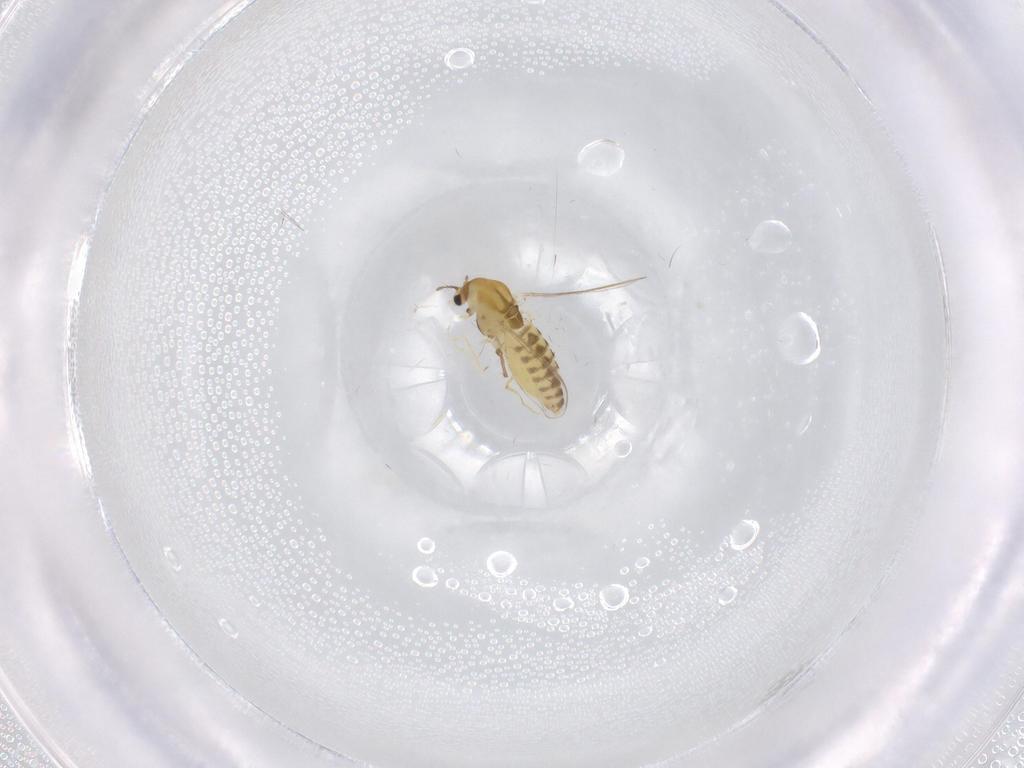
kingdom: Animalia
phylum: Arthropoda
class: Insecta
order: Diptera
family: Chironomidae
